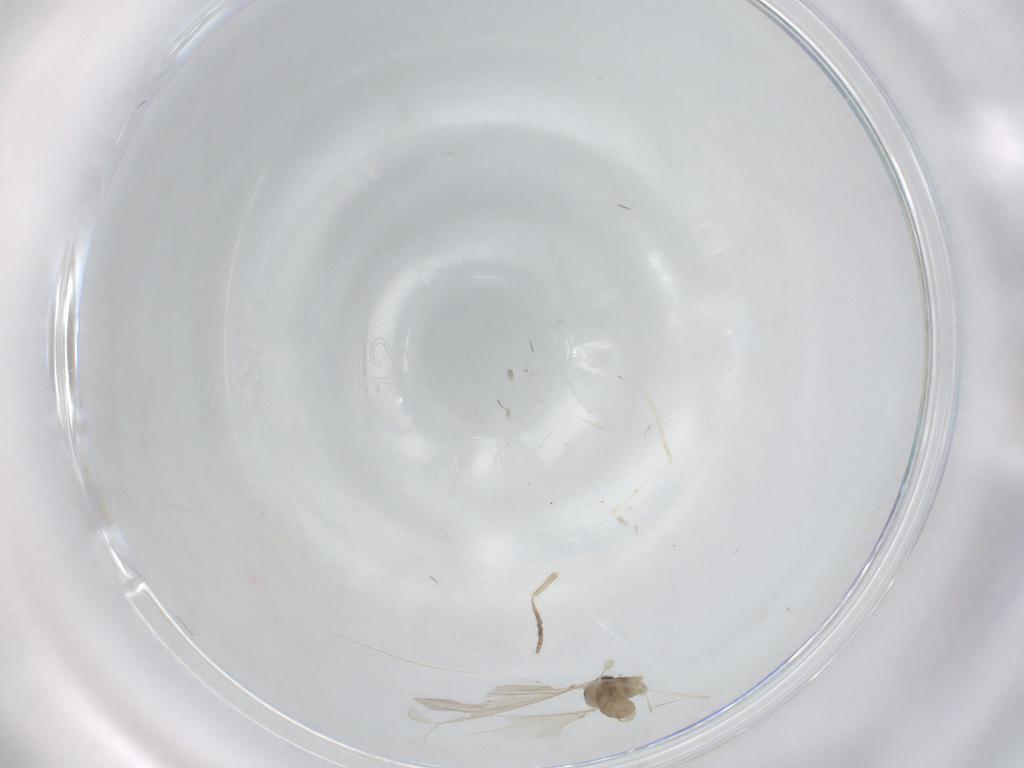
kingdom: Animalia
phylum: Arthropoda
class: Insecta
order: Diptera
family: Cecidomyiidae
